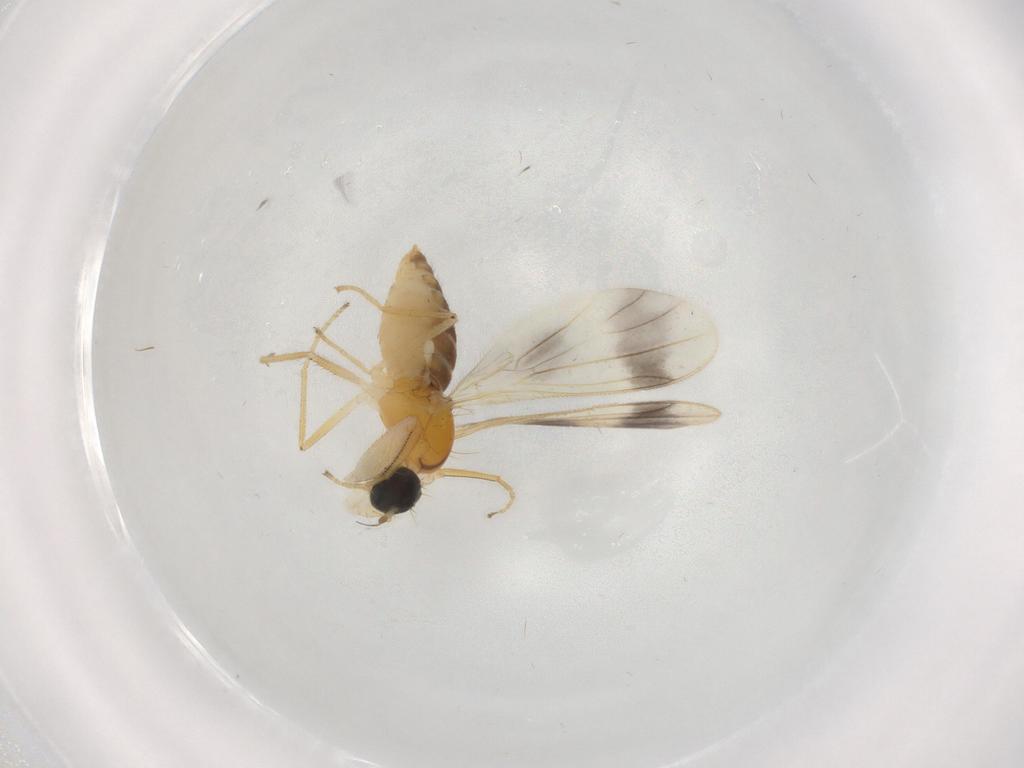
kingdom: Animalia
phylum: Arthropoda
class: Insecta
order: Diptera
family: Empididae
